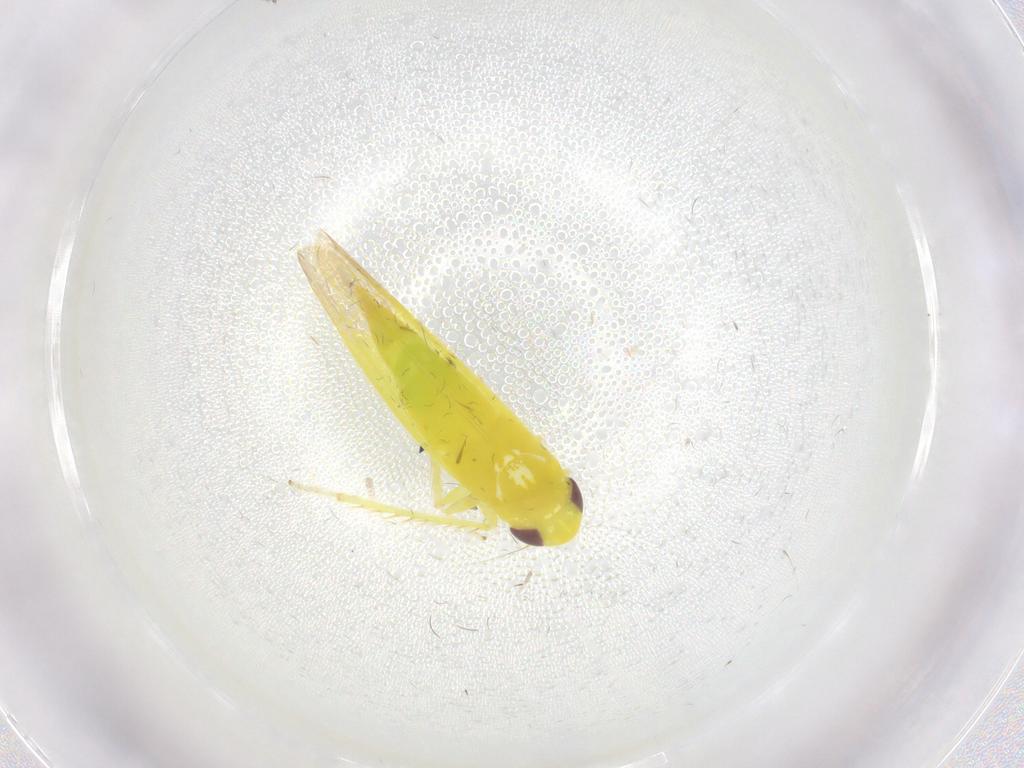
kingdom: Animalia
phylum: Arthropoda
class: Insecta
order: Hemiptera
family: Cicadellidae
